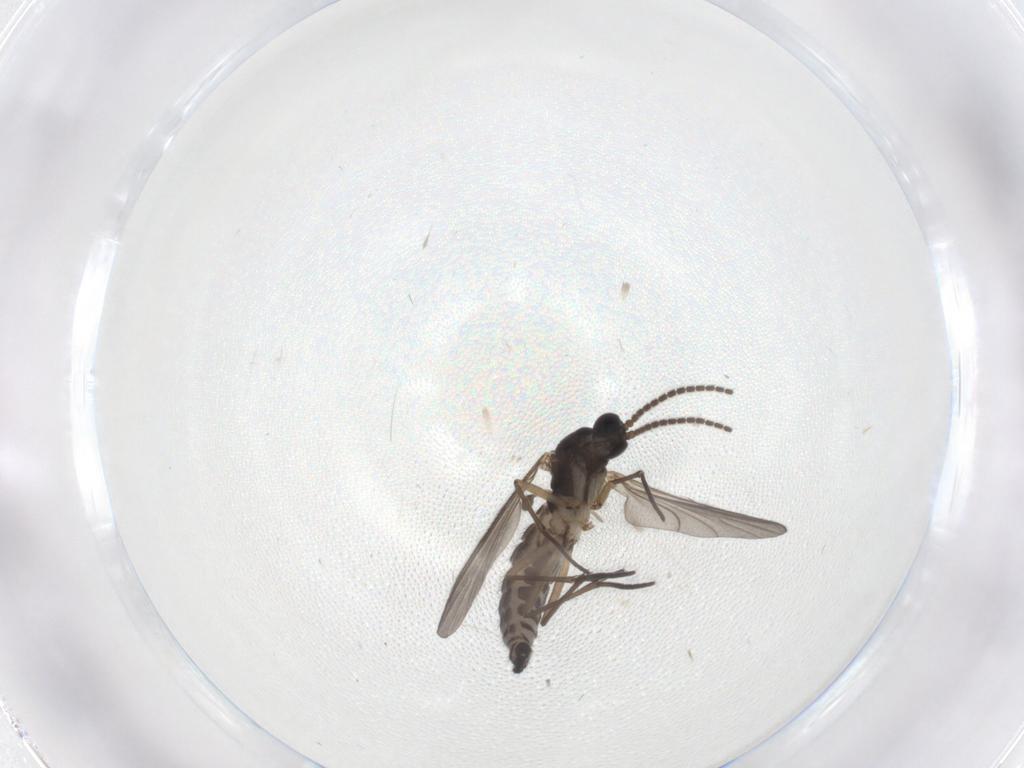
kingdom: Animalia
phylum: Arthropoda
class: Insecta
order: Diptera
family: Sciaridae
